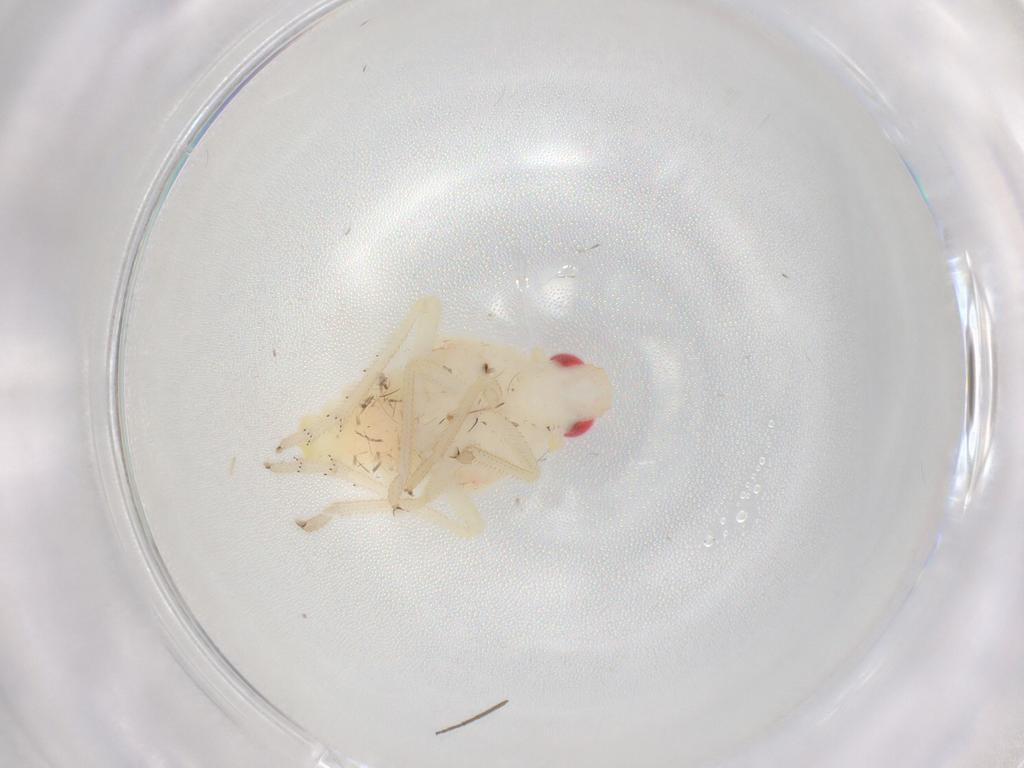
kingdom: Animalia
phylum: Arthropoda
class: Insecta
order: Hemiptera
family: Tropiduchidae
